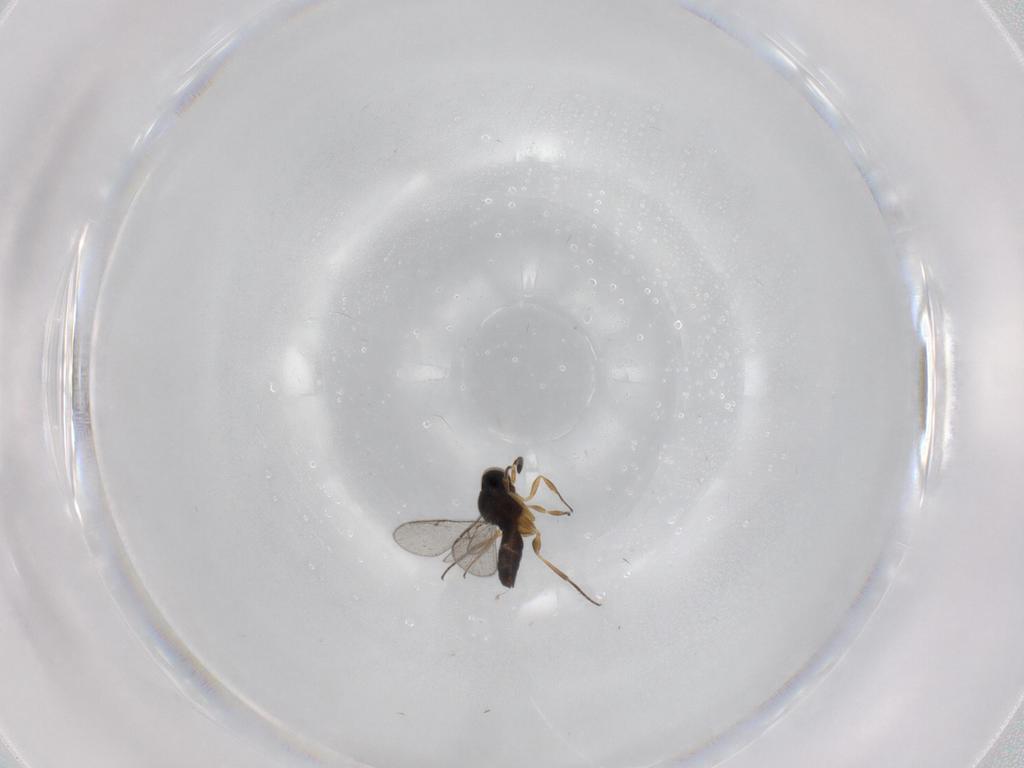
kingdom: Animalia
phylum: Arthropoda
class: Insecta
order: Hymenoptera
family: Scelionidae
